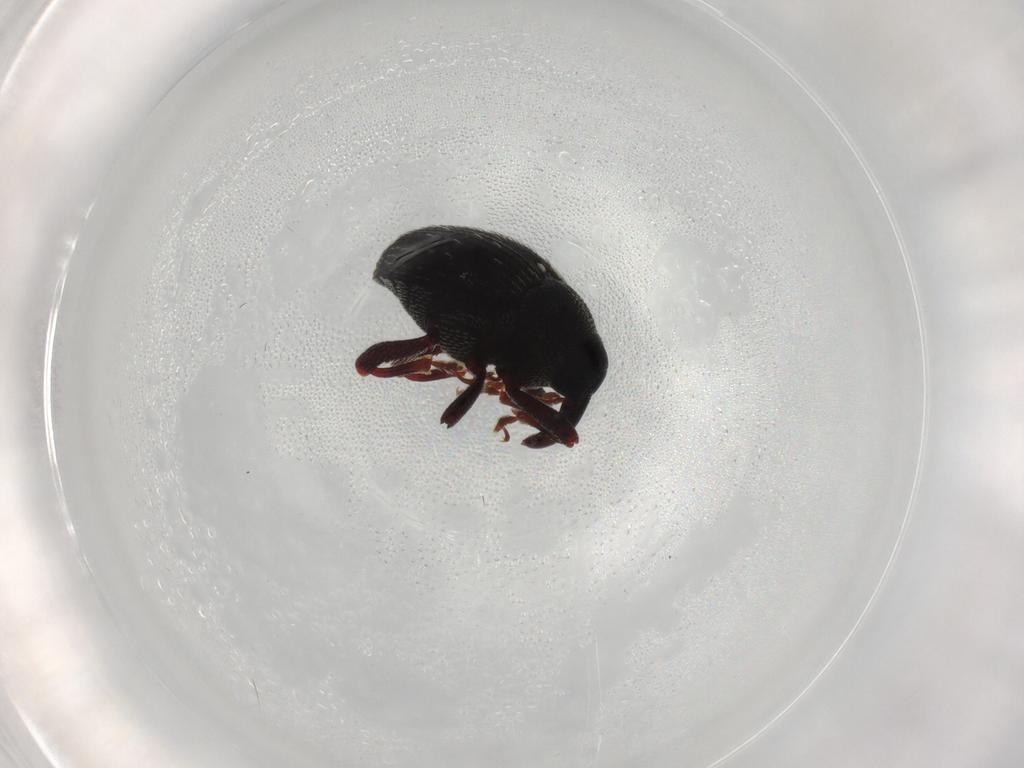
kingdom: Animalia
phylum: Arthropoda
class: Insecta
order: Coleoptera
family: Curculionidae
